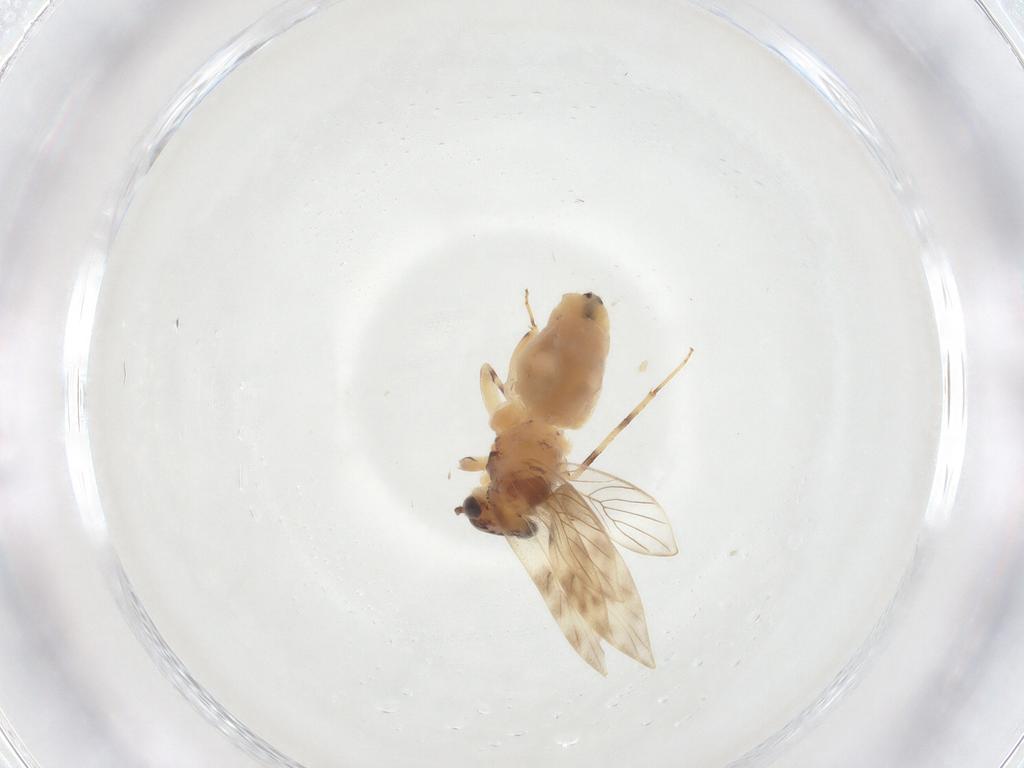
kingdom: Animalia
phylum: Arthropoda
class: Insecta
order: Psocodea
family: Lepidopsocidae
